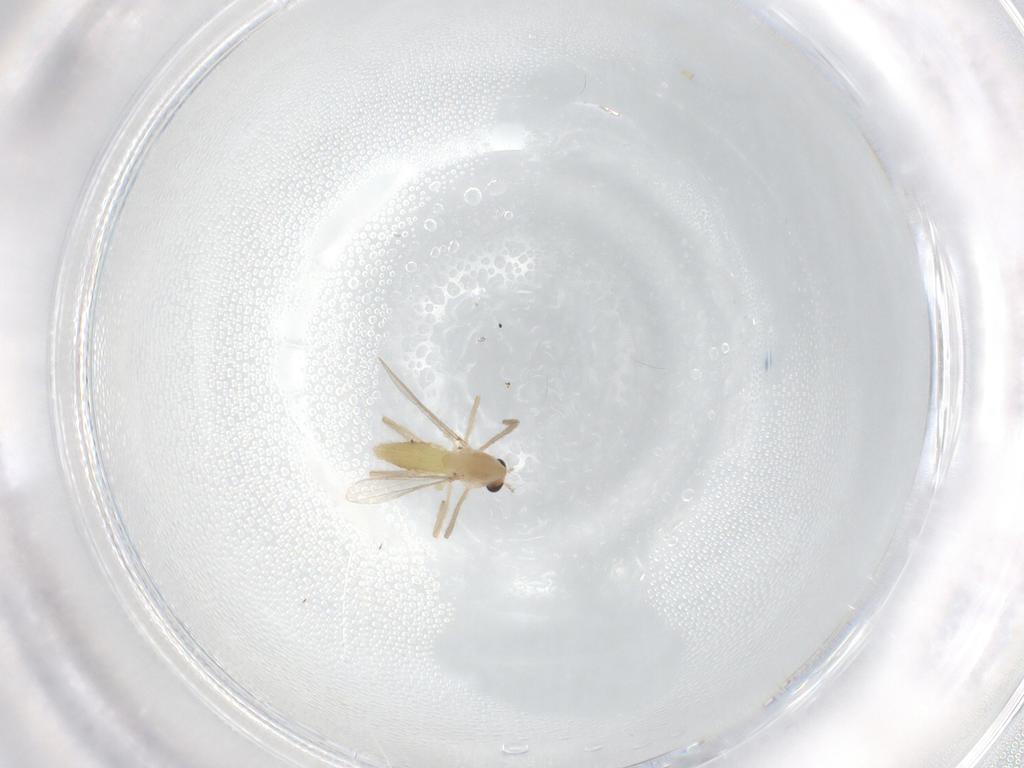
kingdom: Animalia
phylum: Arthropoda
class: Insecta
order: Diptera
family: Chironomidae
